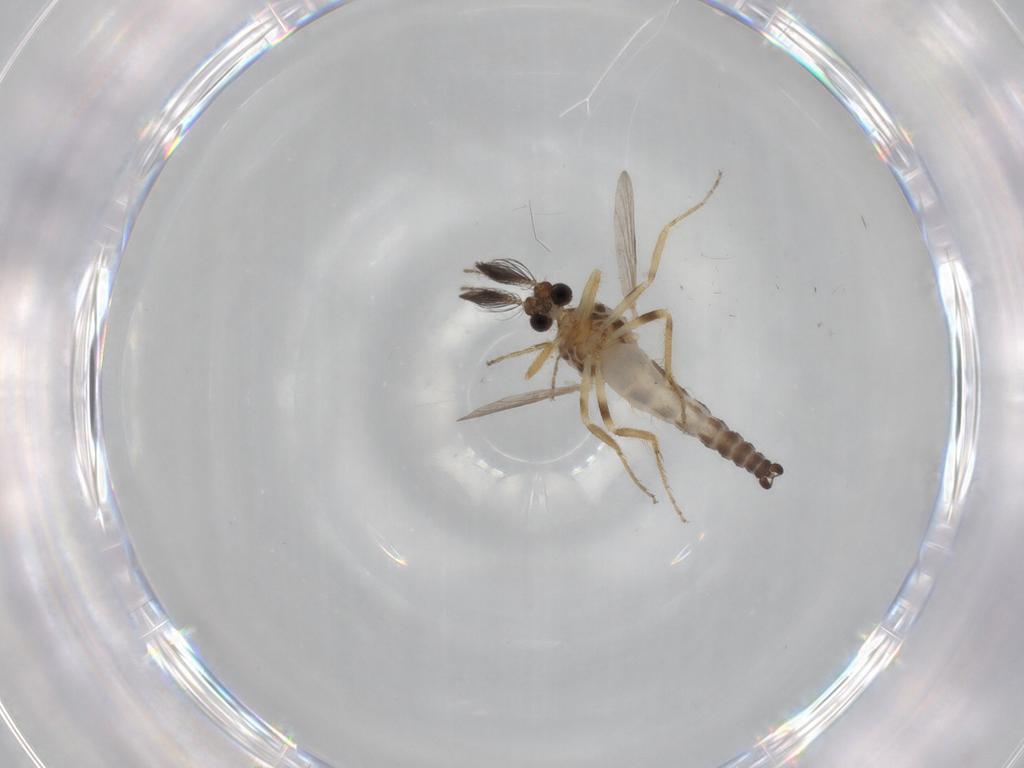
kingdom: Animalia
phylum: Arthropoda
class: Insecta
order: Diptera
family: Ceratopogonidae
